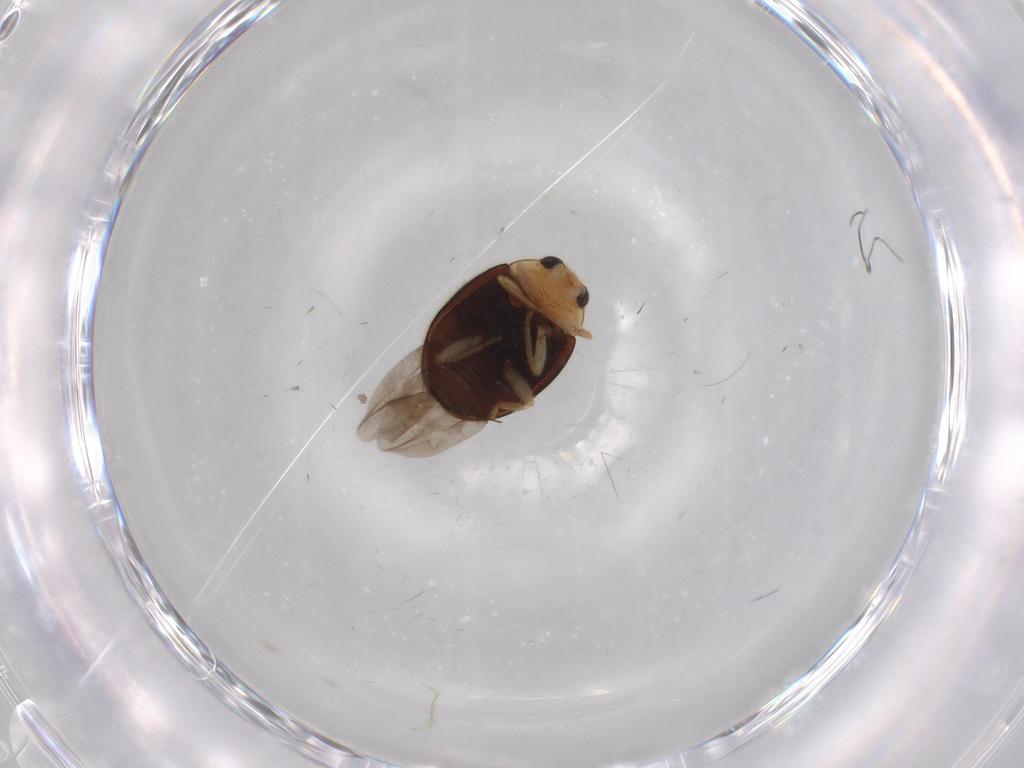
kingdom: Animalia
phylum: Arthropoda
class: Insecta
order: Coleoptera
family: Coccinellidae
